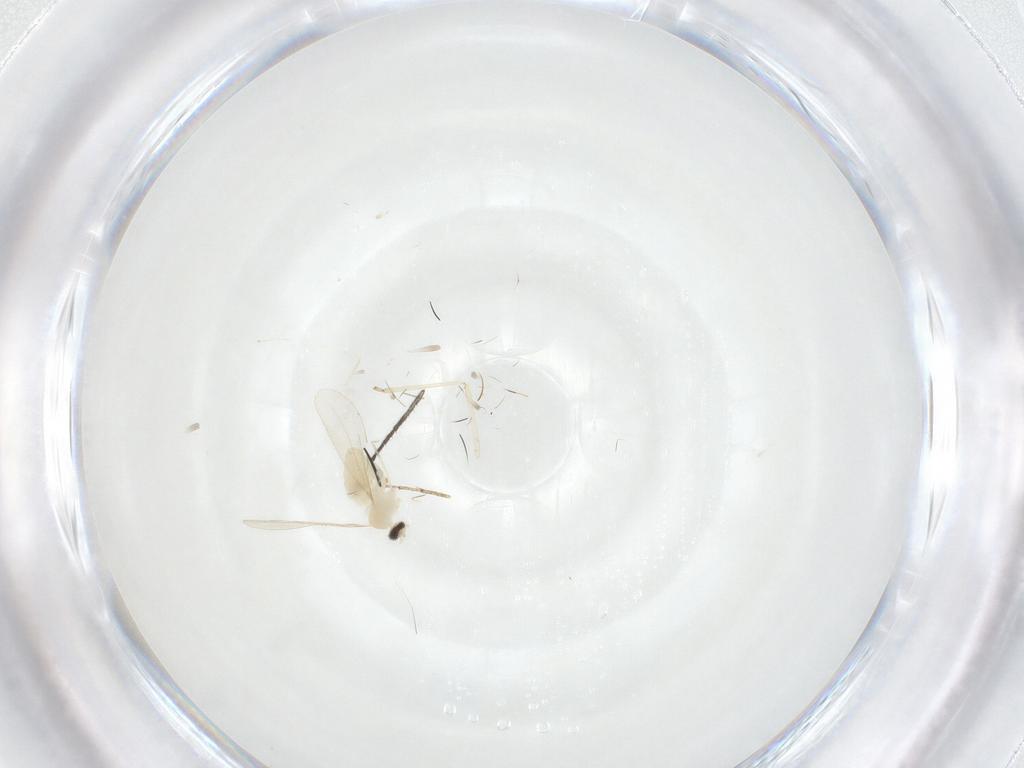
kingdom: Animalia
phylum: Arthropoda
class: Insecta
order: Diptera
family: Cecidomyiidae
